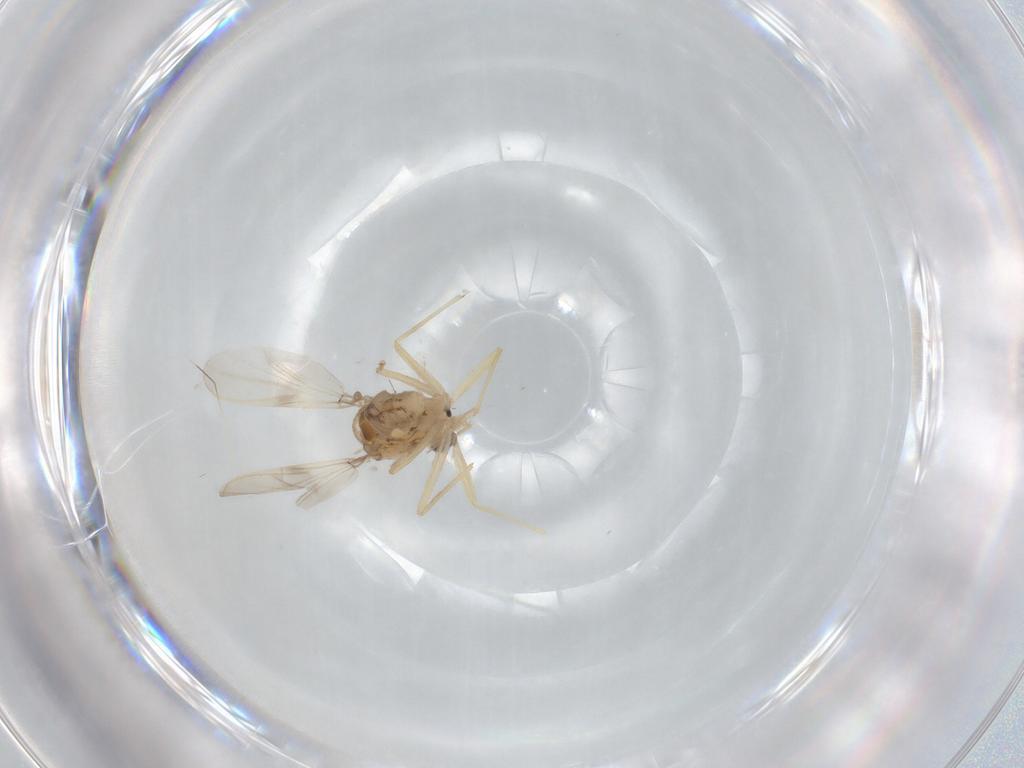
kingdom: Animalia
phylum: Arthropoda
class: Insecta
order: Diptera
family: Chironomidae
